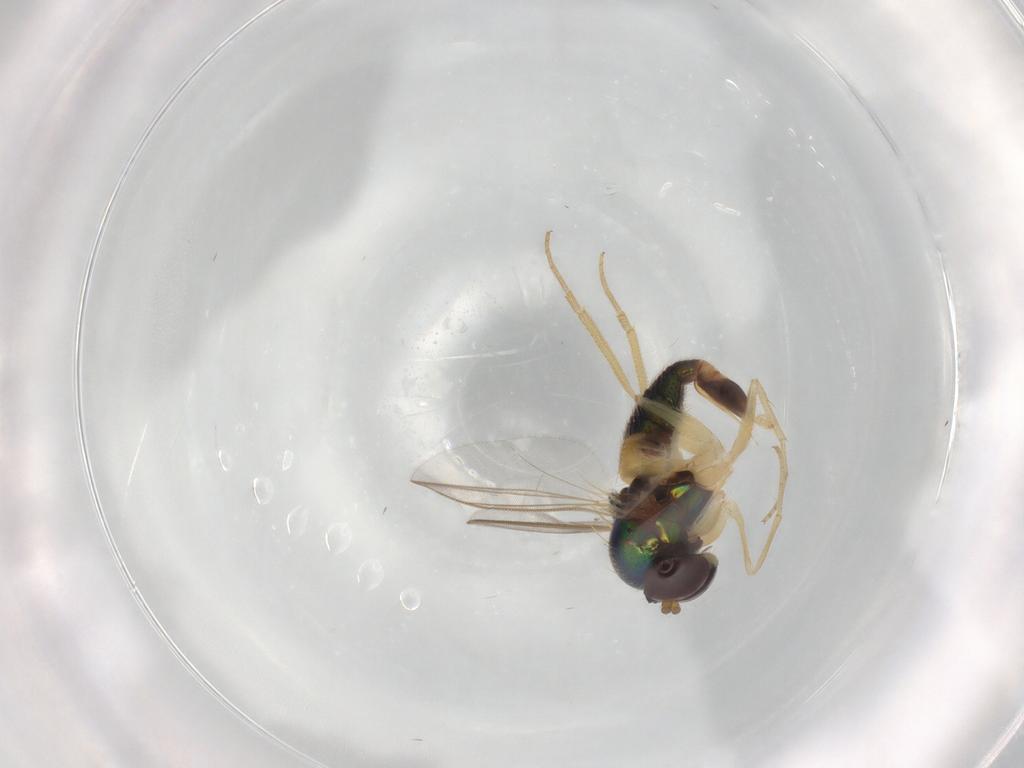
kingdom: Animalia
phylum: Arthropoda
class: Insecta
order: Diptera
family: Dolichopodidae
